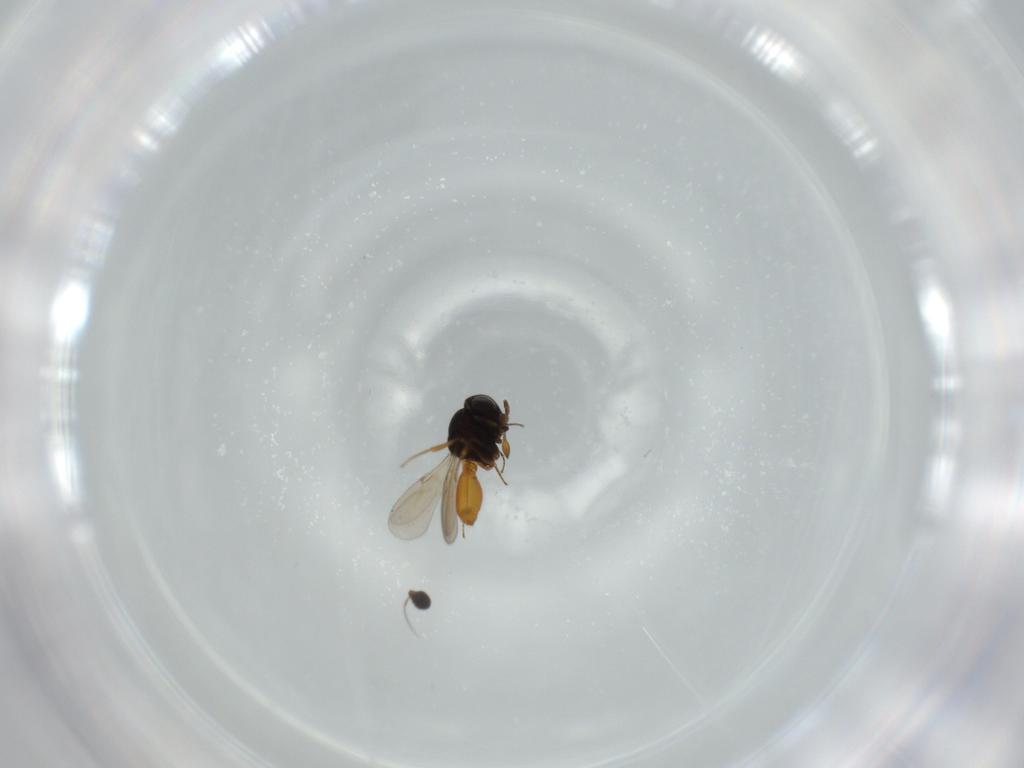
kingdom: Animalia
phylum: Arthropoda
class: Insecta
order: Hymenoptera
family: Scelionidae
